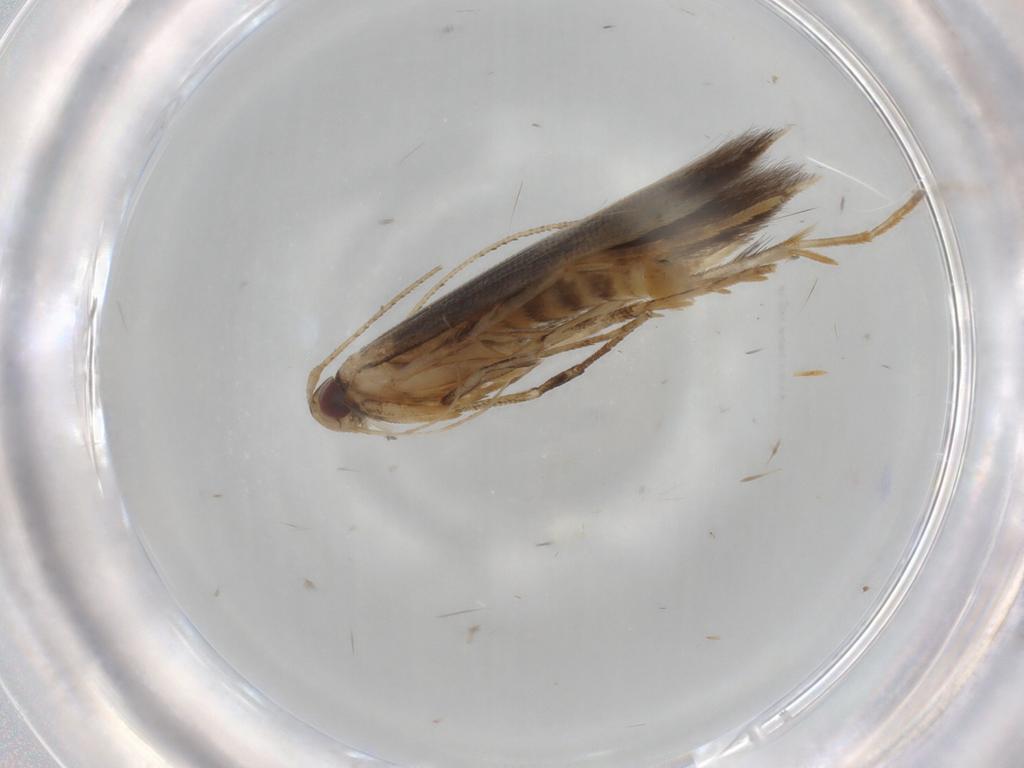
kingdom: Animalia
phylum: Arthropoda
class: Insecta
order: Lepidoptera
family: Cosmopterigidae
